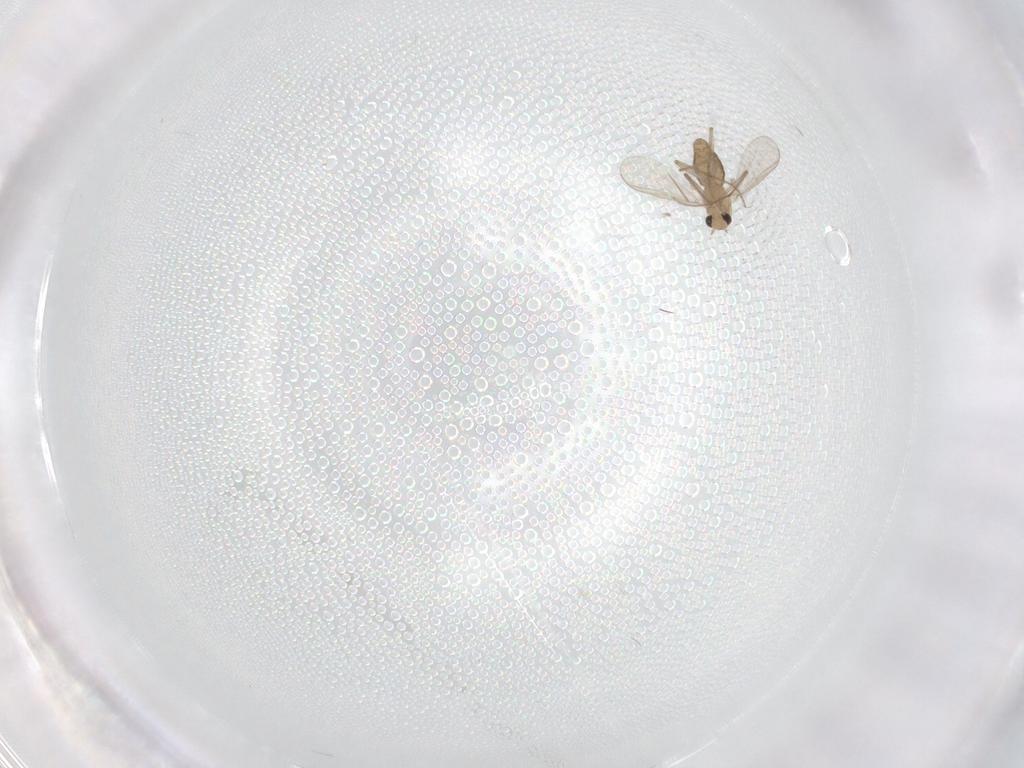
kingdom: Animalia
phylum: Arthropoda
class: Insecta
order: Diptera
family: Chironomidae
